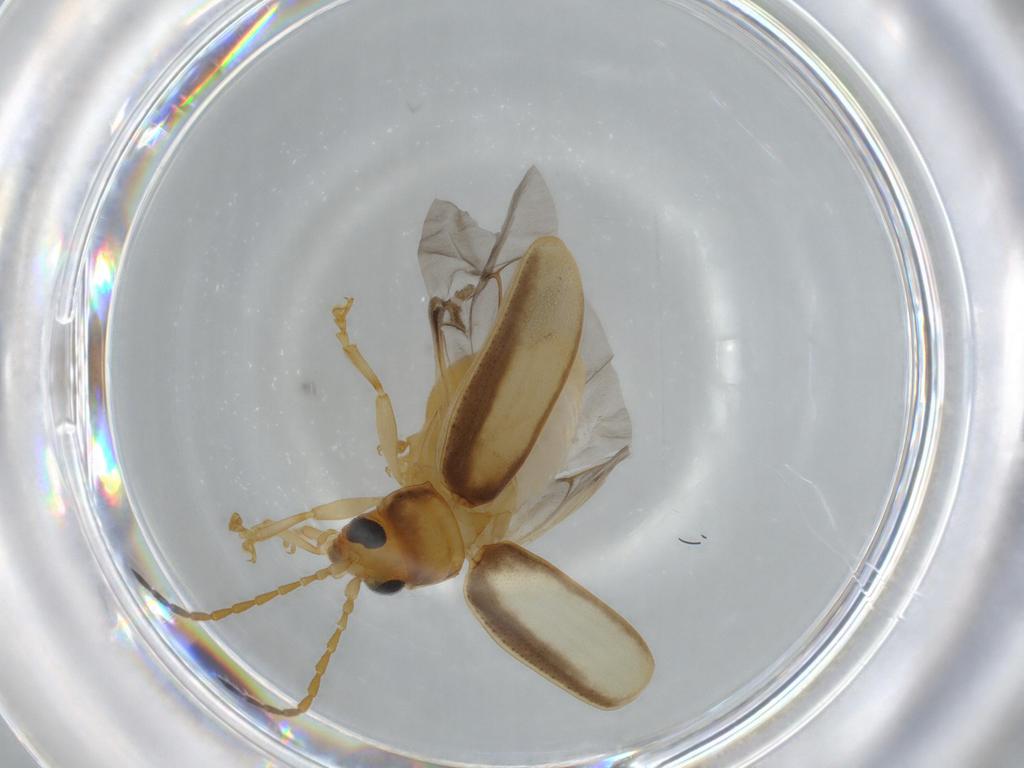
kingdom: Animalia
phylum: Arthropoda
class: Insecta
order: Coleoptera
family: Chrysomelidae
